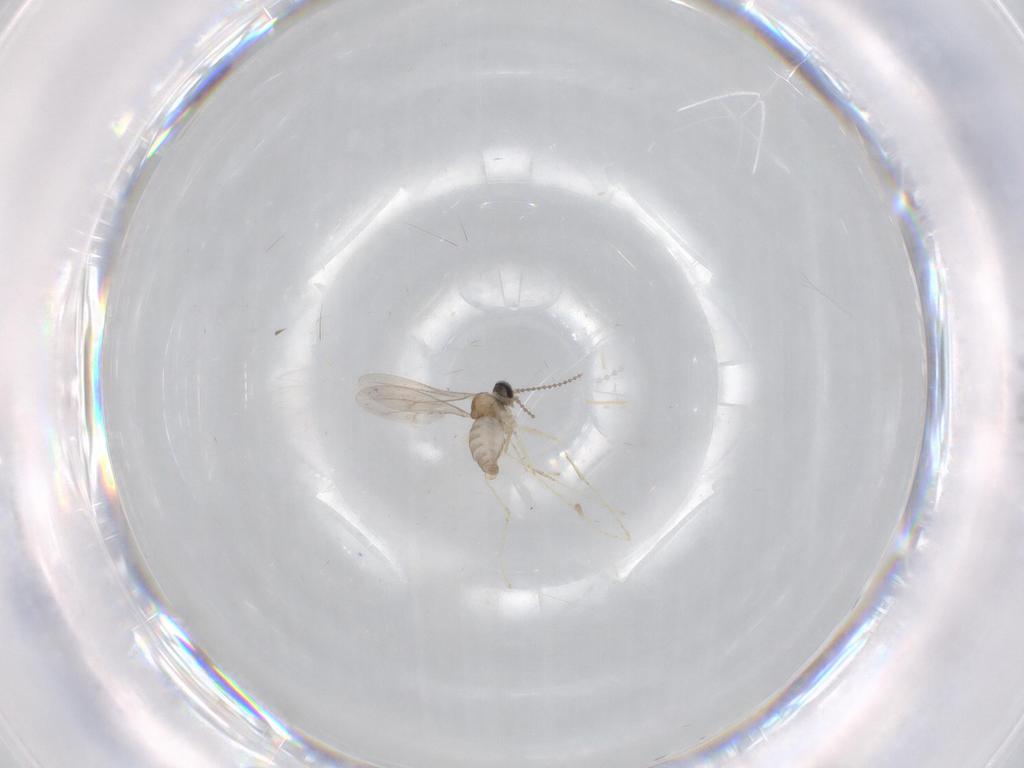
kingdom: Animalia
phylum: Arthropoda
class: Insecta
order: Diptera
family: Cecidomyiidae
